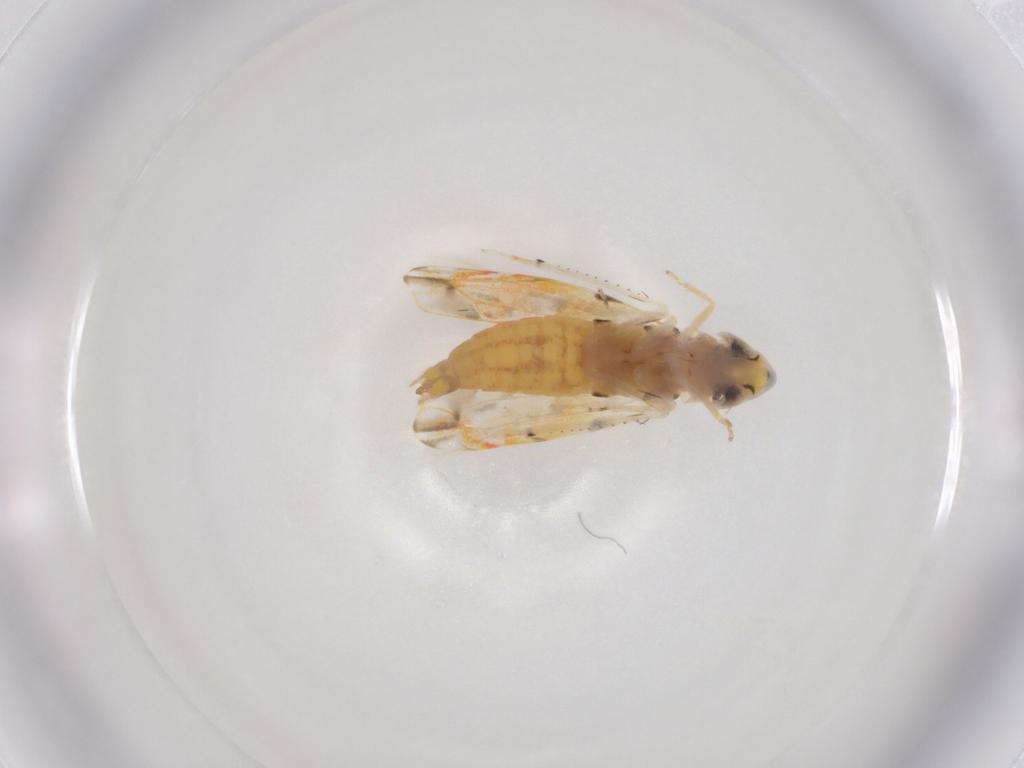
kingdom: Animalia
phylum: Arthropoda
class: Insecta
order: Hemiptera
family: Cicadellidae
